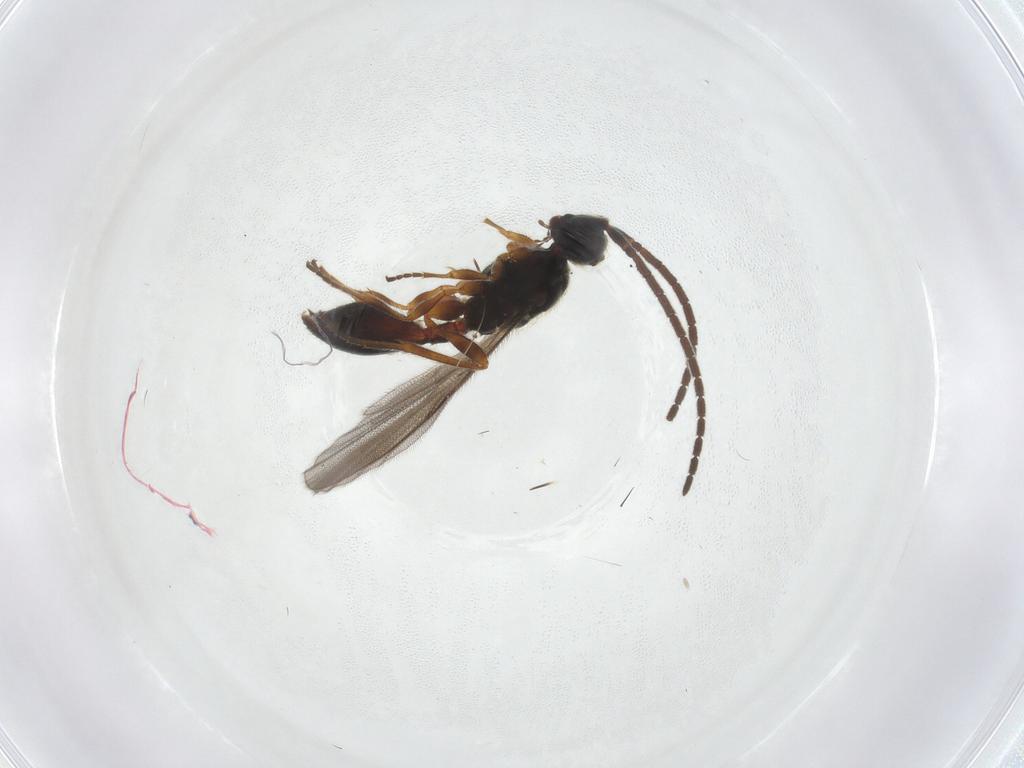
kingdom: Animalia
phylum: Arthropoda
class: Insecta
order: Hymenoptera
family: Diapriidae
